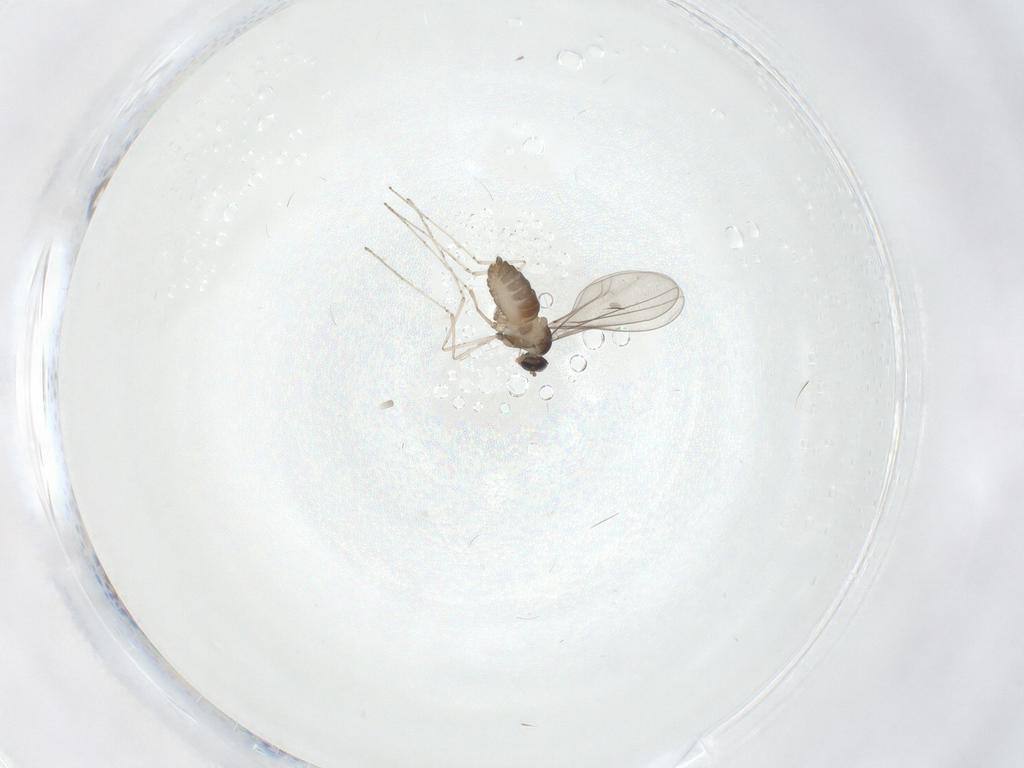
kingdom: Animalia
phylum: Arthropoda
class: Insecta
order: Diptera
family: Cecidomyiidae
